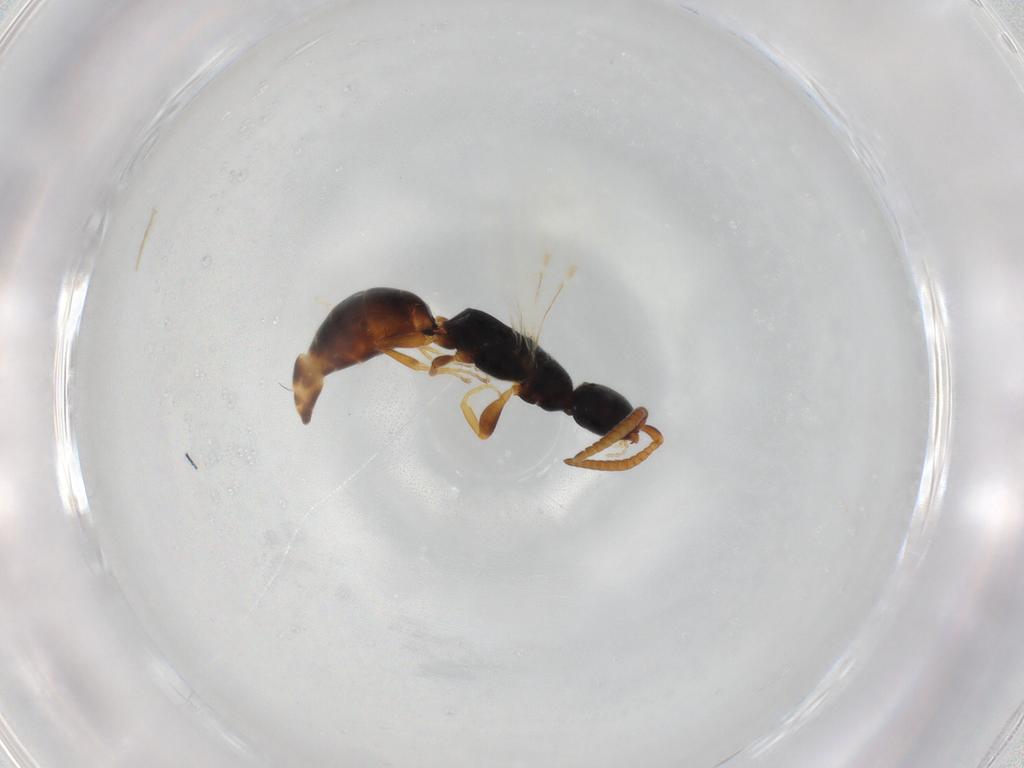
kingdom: Animalia
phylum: Arthropoda
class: Insecta
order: Hymenoptera
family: Bethylidae
